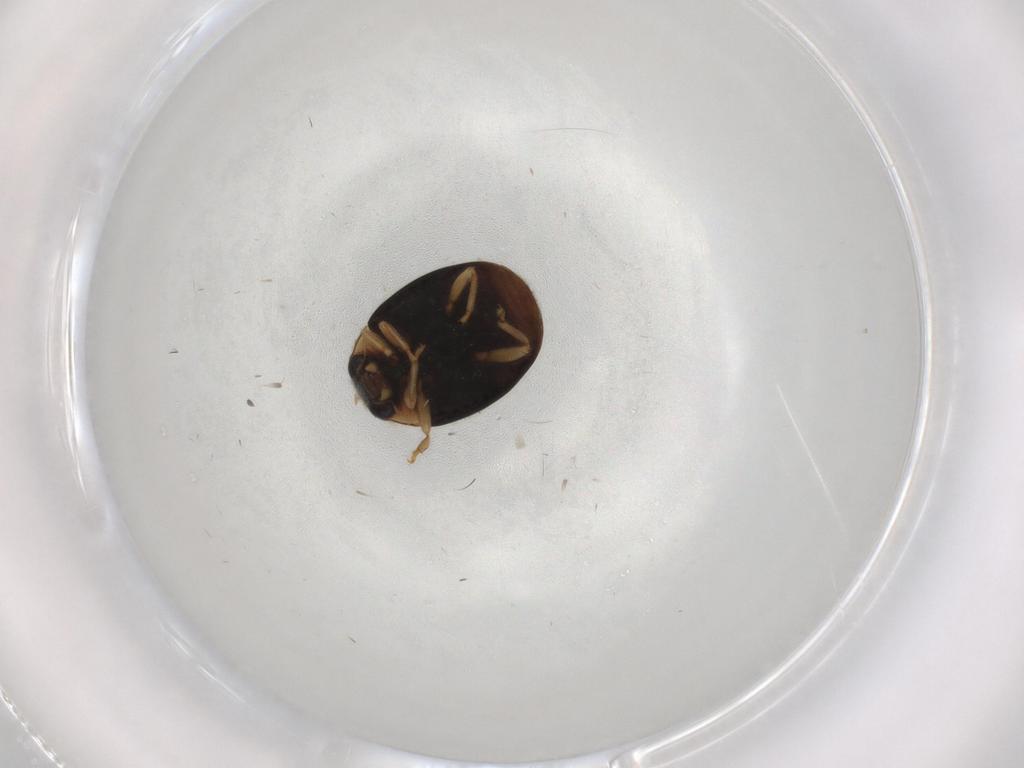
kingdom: Animalia
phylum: Arthropoda
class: Insecta
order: Coleoptera
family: Coccinellidae
